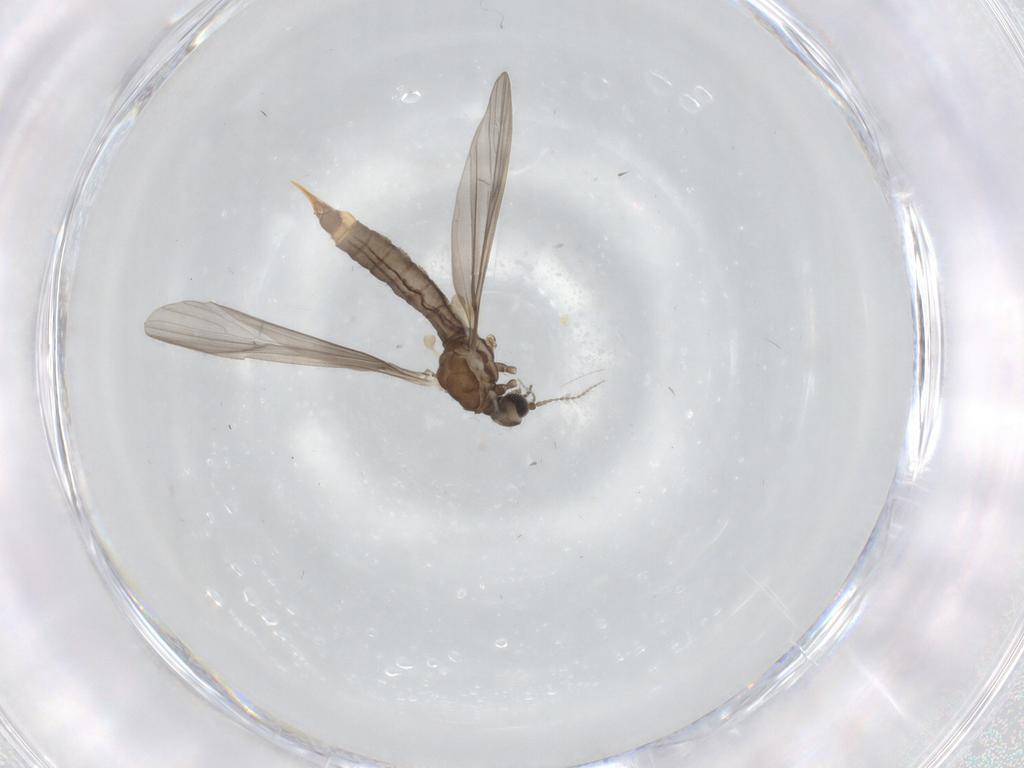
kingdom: Animalia
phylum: Arthropoda
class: Insecta
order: Diptera
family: Limoniidae
